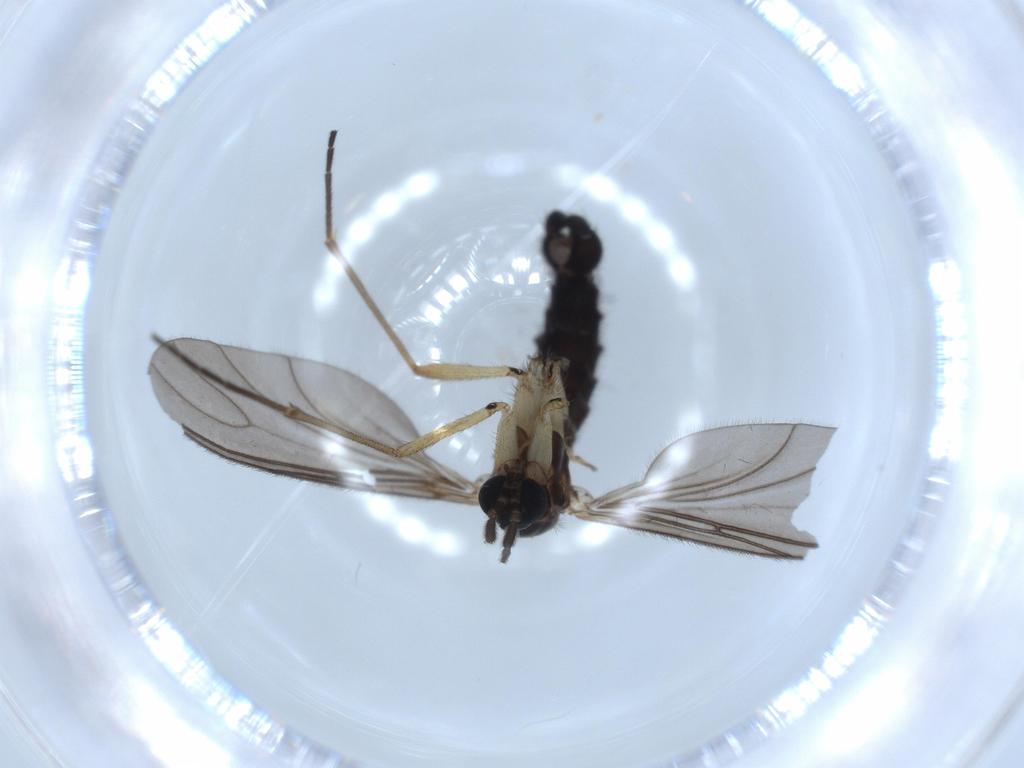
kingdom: Animalia
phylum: Arthropoda
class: Insecta
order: Diptera
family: Sciaridae
